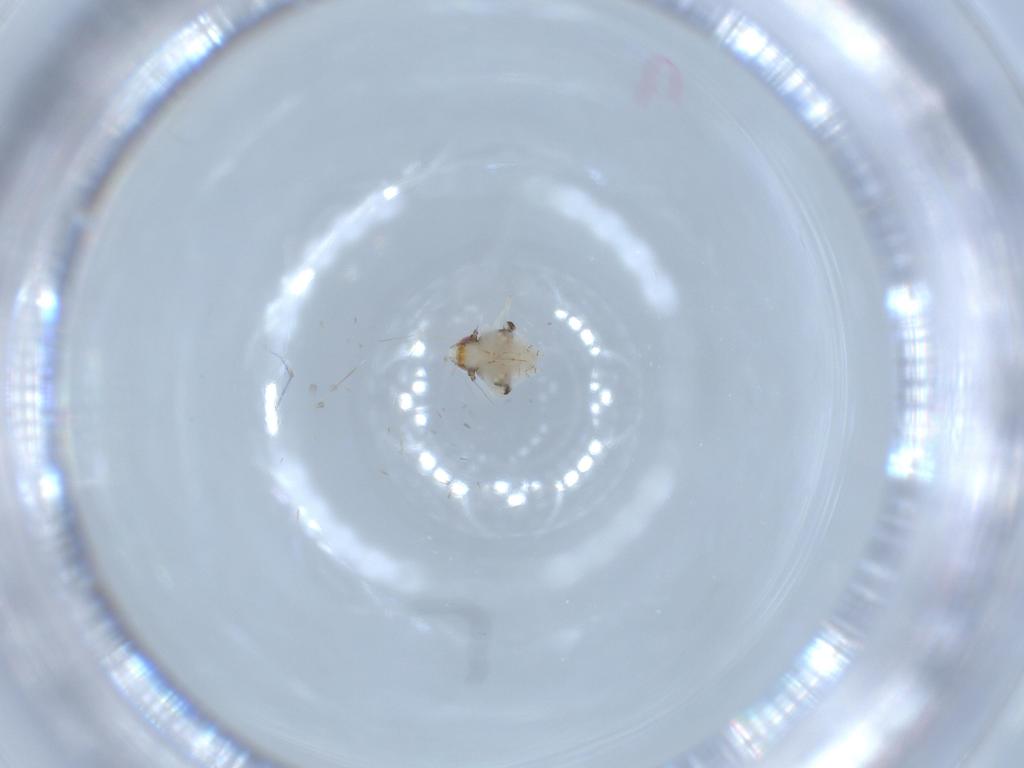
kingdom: Animalia
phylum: Arthropoda
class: Insecta
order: Hemiptera
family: Nogodinidae
